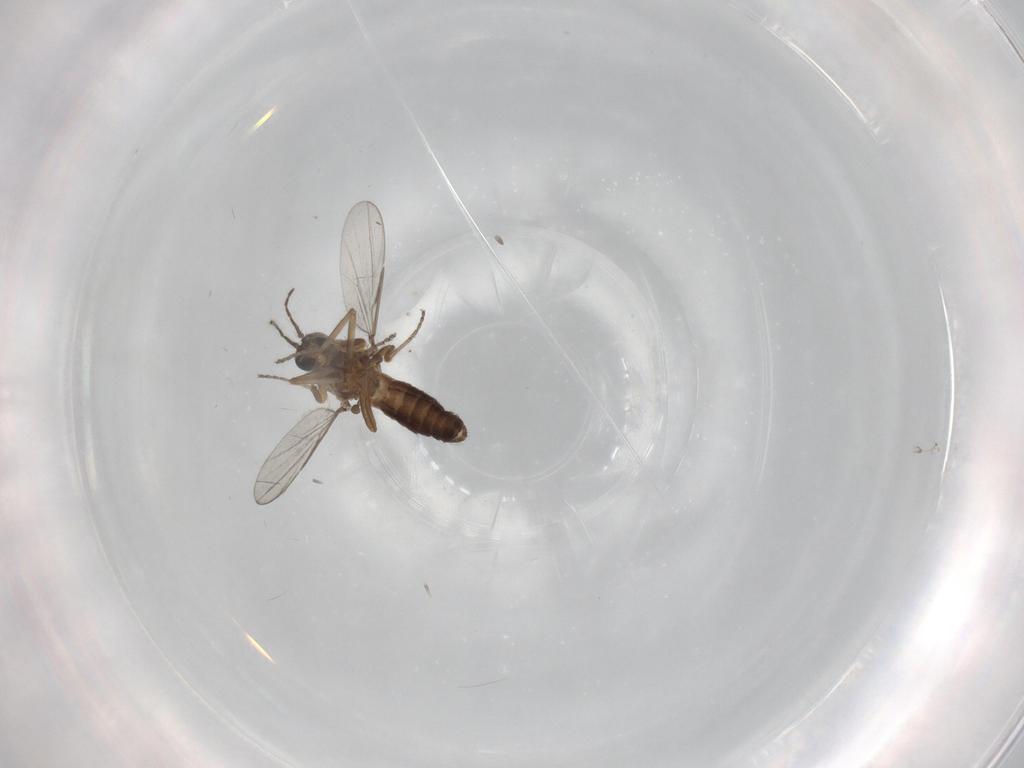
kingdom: Animalia
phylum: Arthropoda
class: Insecta
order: Diptera
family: Ceratopogonidae
